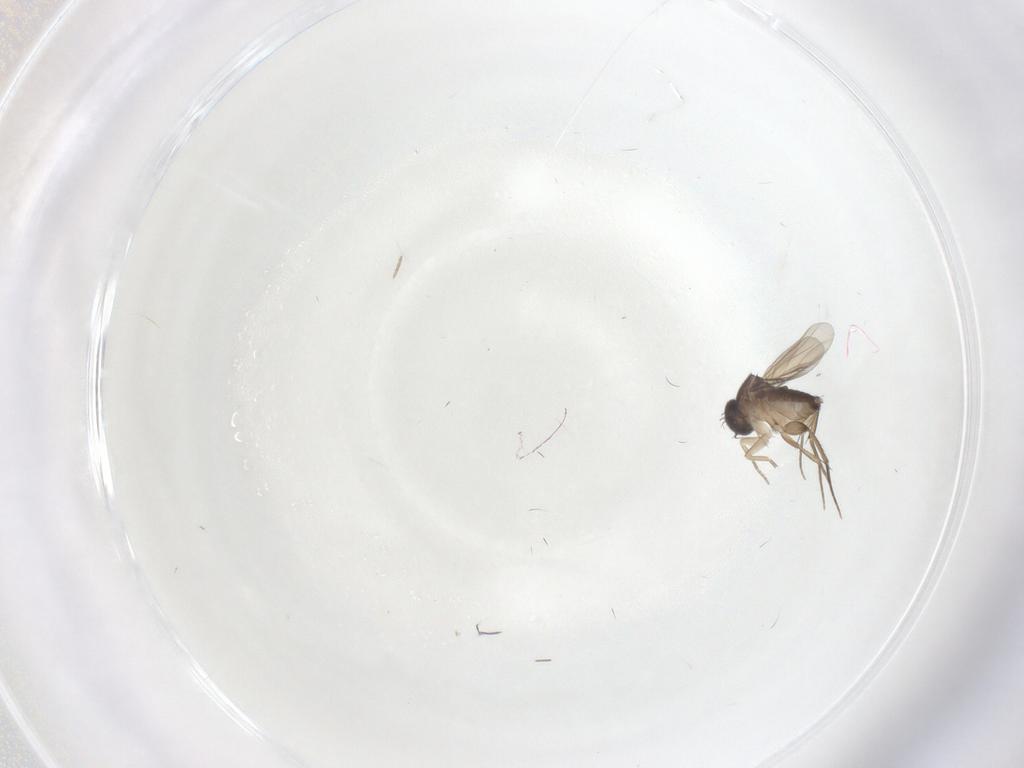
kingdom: Animalia
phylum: Arthropoda
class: Insecta
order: Diptera
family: Phoridae
